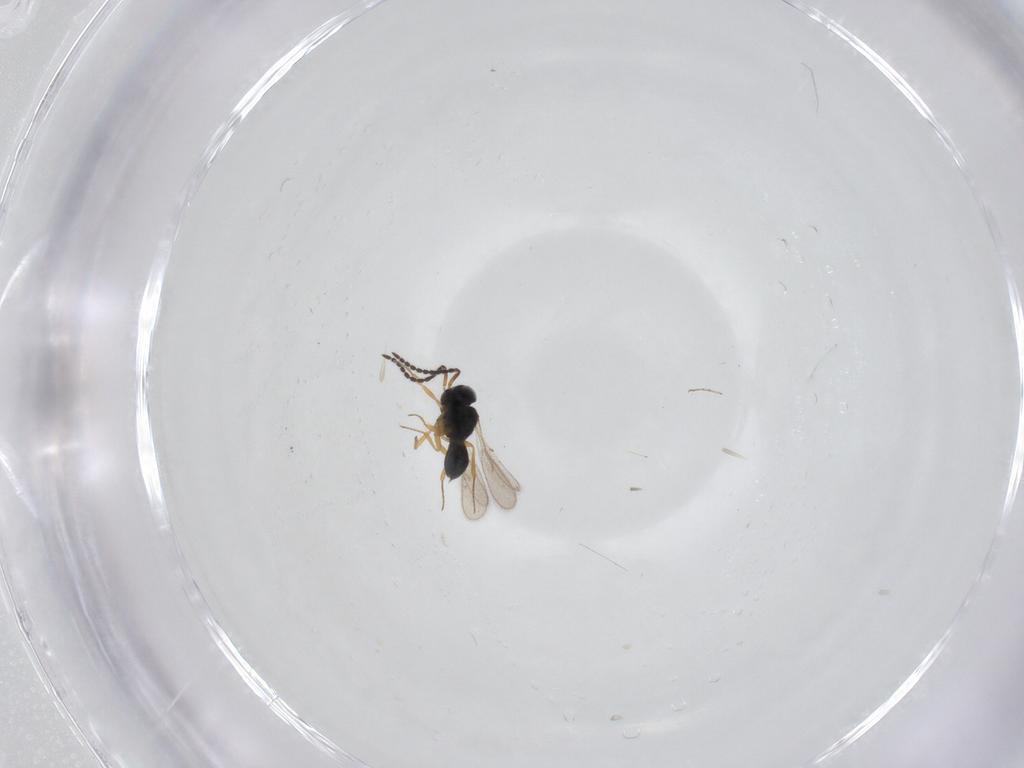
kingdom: Animalia
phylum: Arthropoda
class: Insecta
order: Hymenoptera
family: Scelionidae
